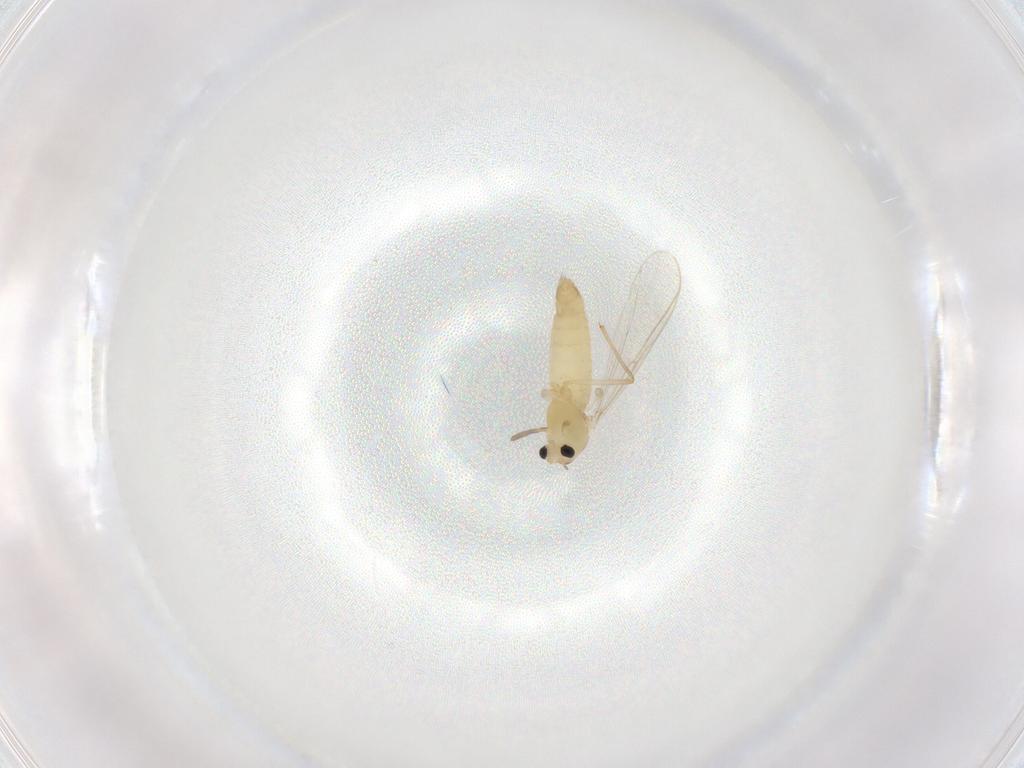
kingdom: Animalia
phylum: Arthropoda
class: Insecta
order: Diptera
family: Chironomidae
